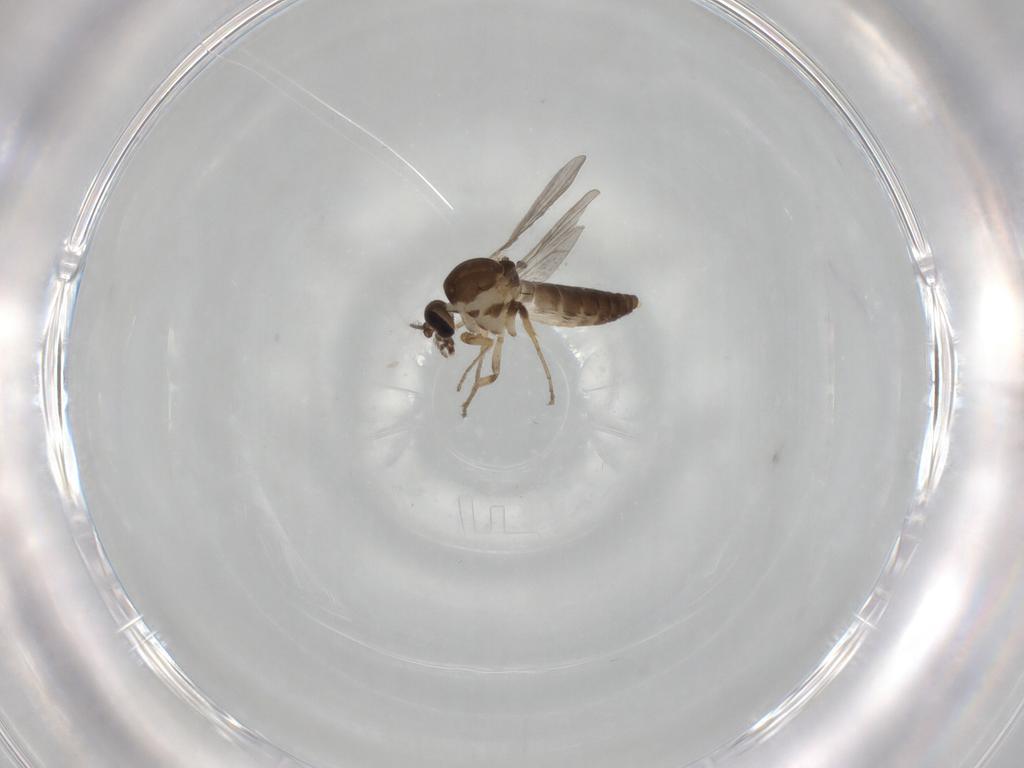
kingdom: Animalia
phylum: Arthropoda
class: Insecta
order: Diptera
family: Ceratopogonidae
